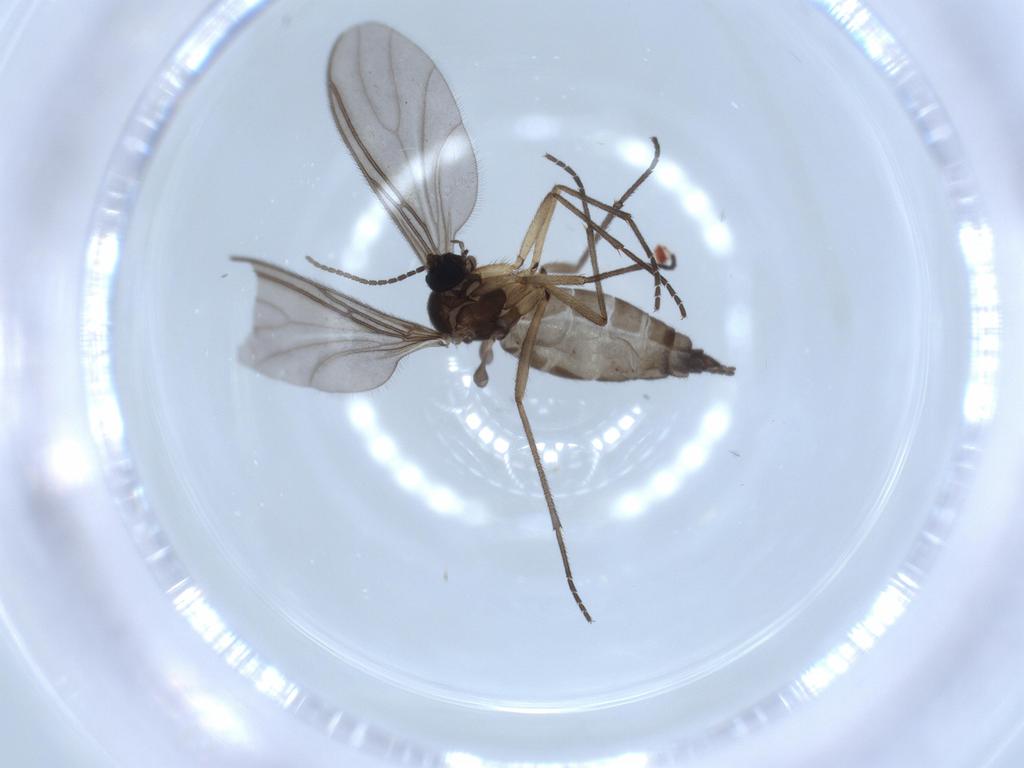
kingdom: Animalia
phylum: Arthropoda
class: Insecta
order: Diptera
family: Sciaridae
